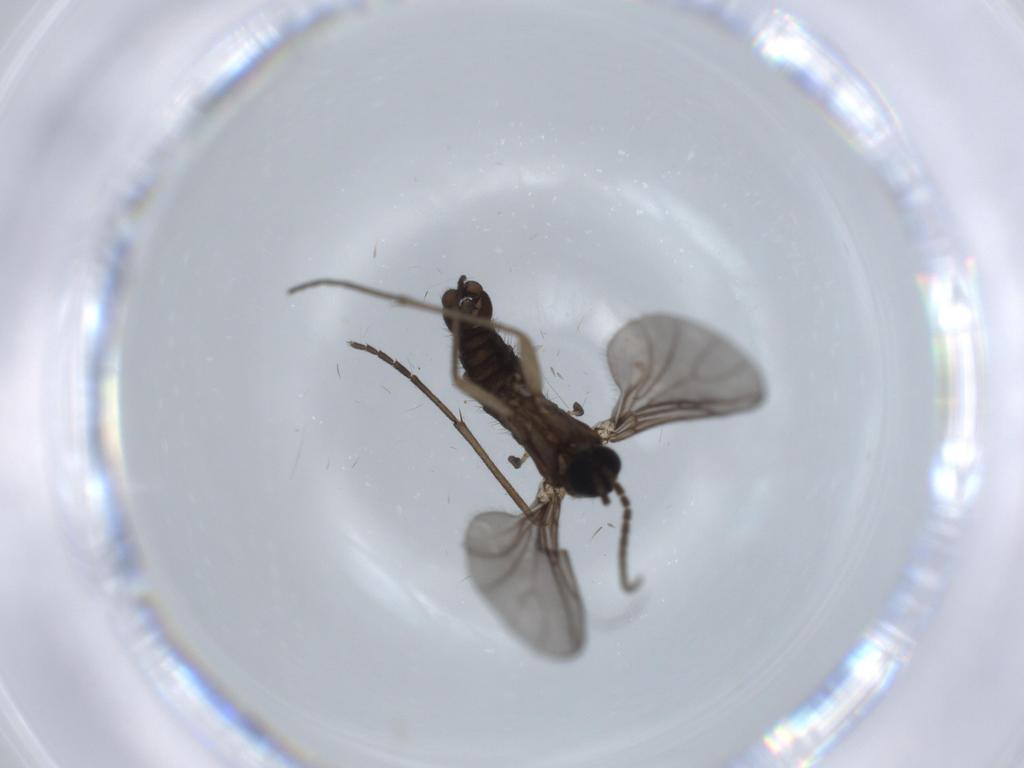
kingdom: Animalia
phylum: Arthropoda
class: Insecta
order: Diptera
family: Sciaridae
